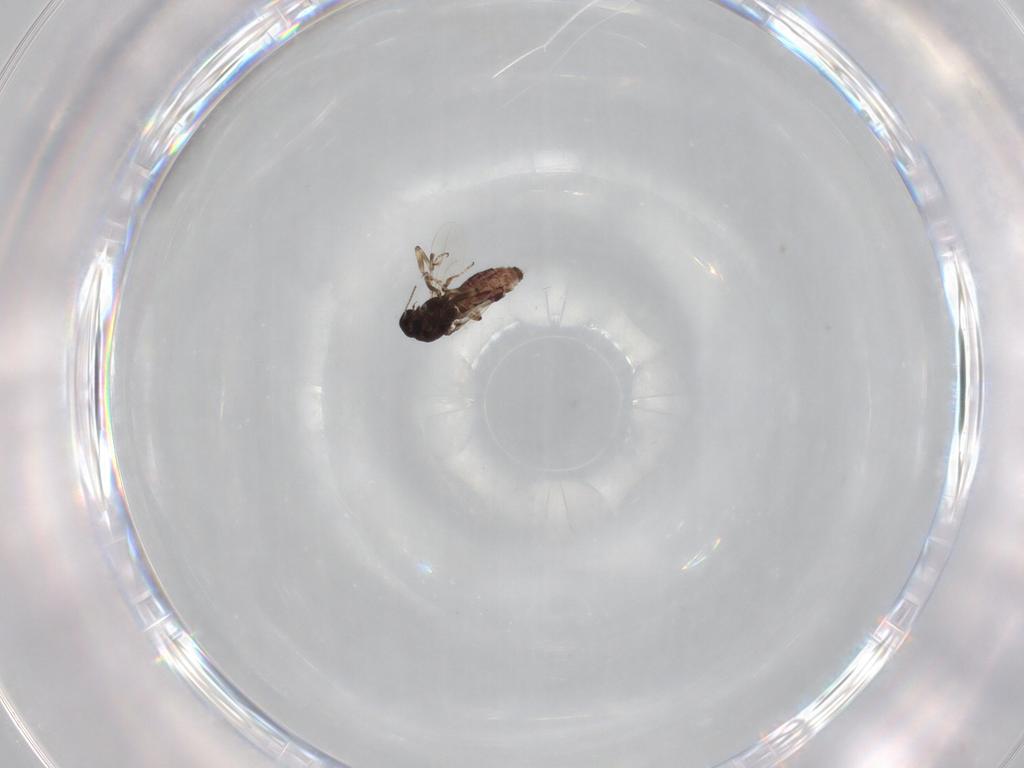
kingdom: Animalia
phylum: Arthropoda
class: Insecta
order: Diptera
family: Ceratopogonidae
